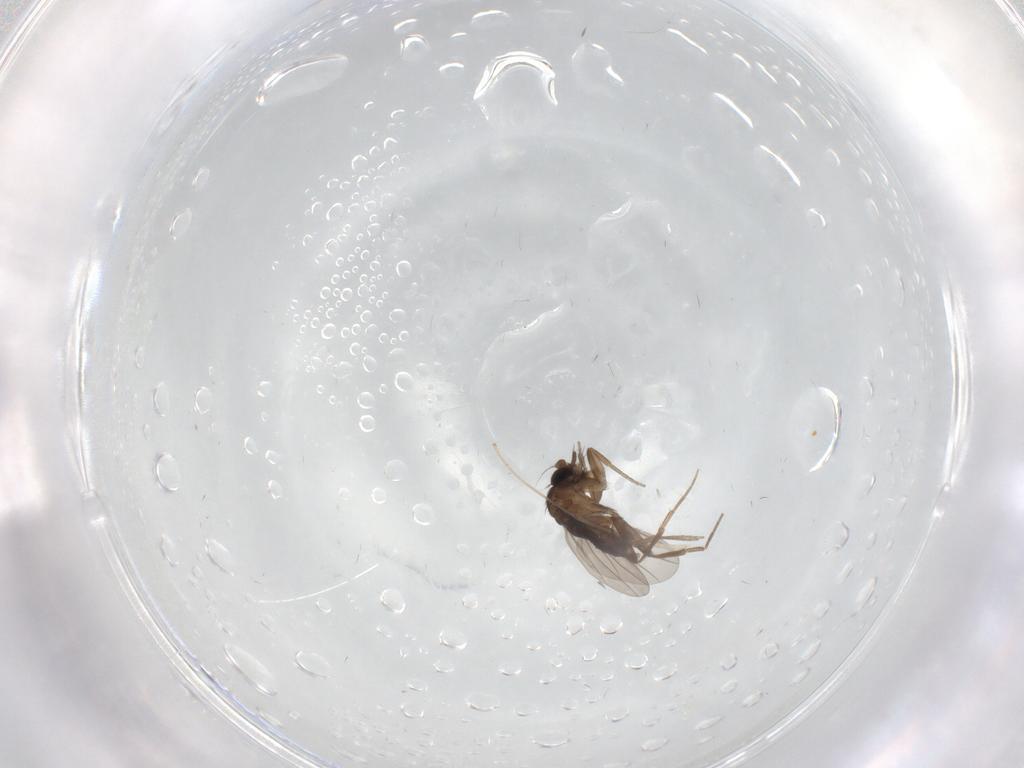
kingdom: Animalia
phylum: Arthropoda
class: Insecta
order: Diptera
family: Phoridae
